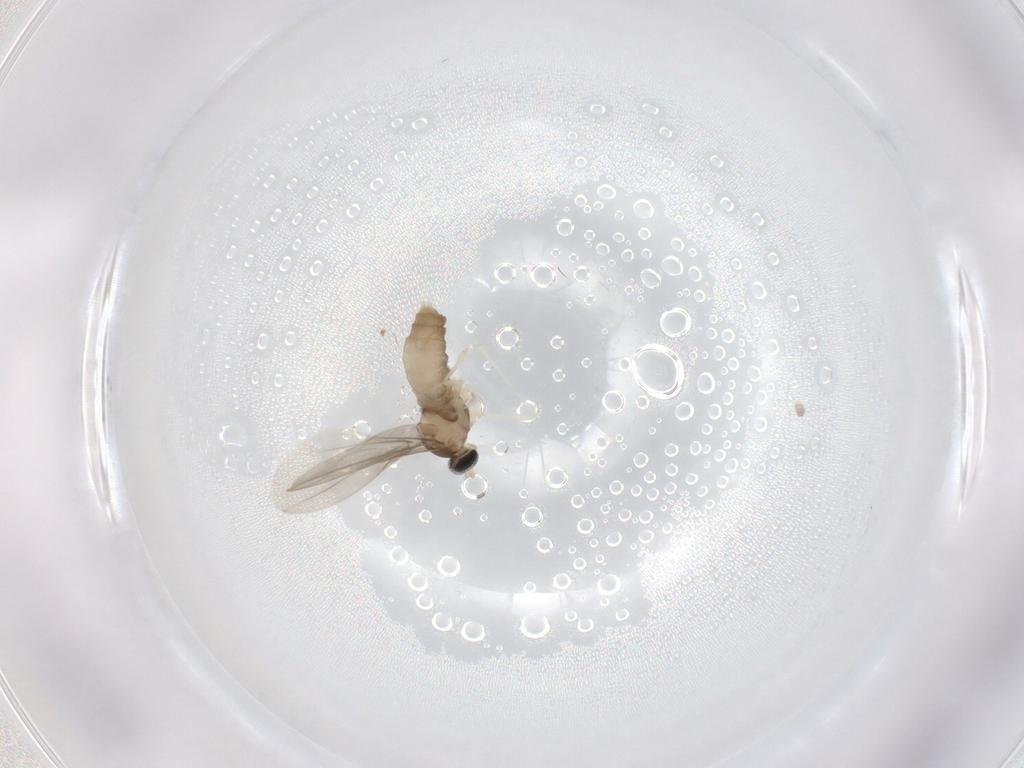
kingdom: Animalia
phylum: Arthropoda
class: Insecta
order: Diptera
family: Cecidomyiidae
